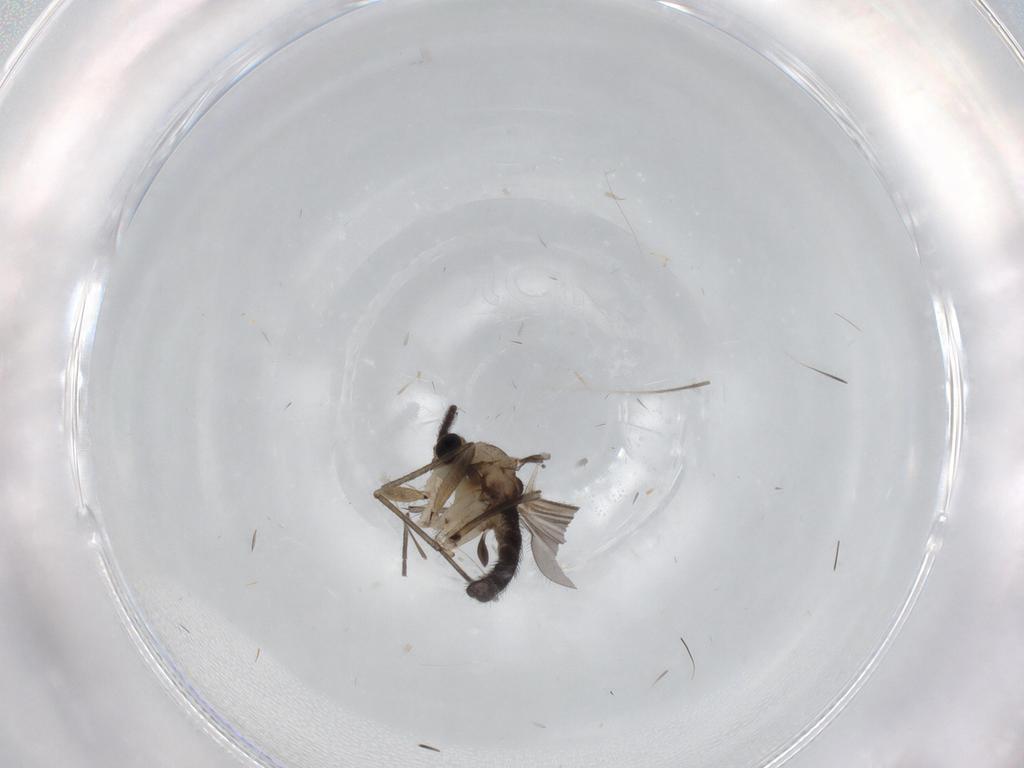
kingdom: Animalia
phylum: Arthropoda
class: Insecta
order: Diptera
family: Sciaridae
